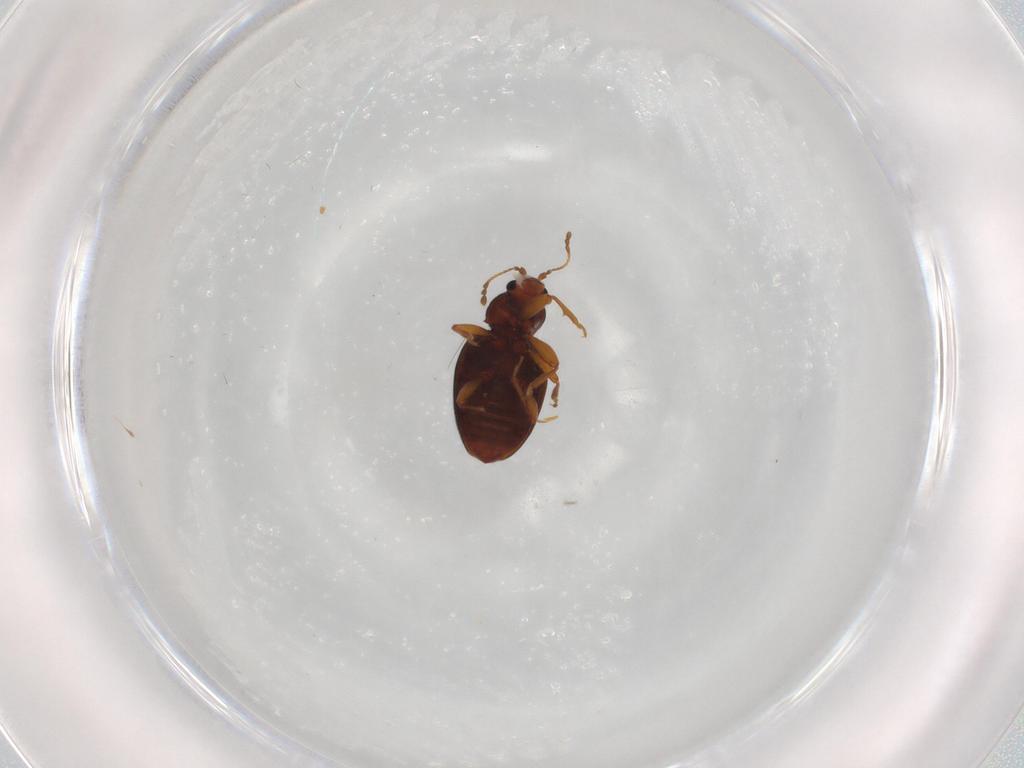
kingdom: Animalia
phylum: Arthropoda
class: Insecta
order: Coleoptera
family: Latridiidae
